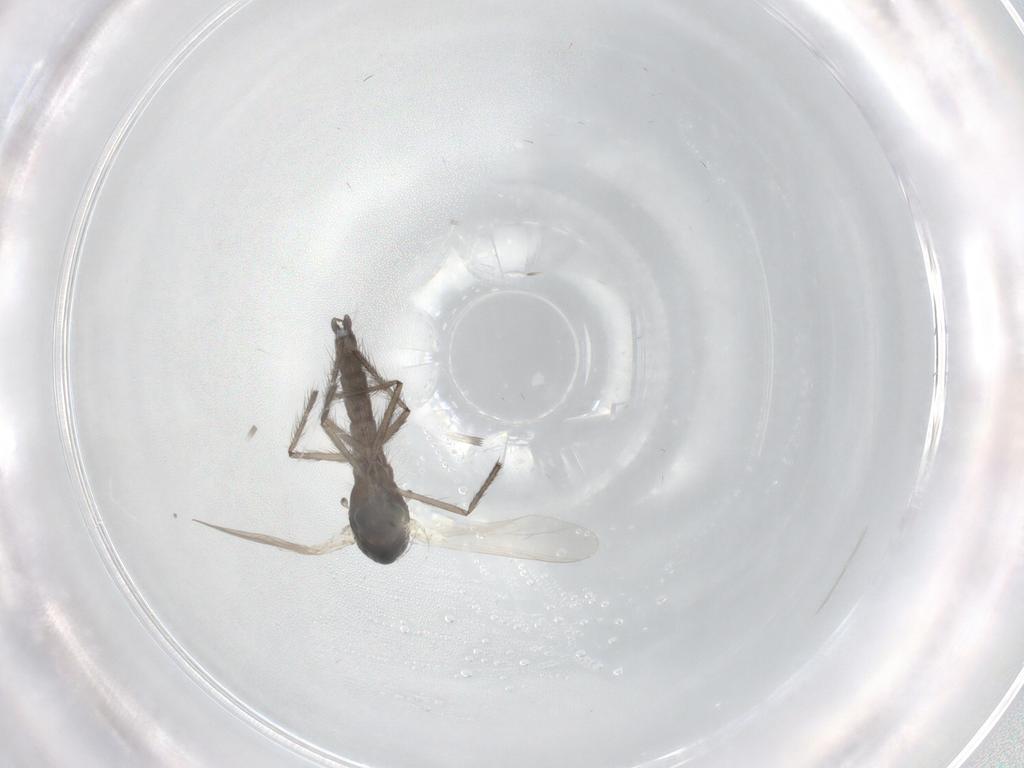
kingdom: Animalia
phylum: Arthropoda
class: Insecta
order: Diptera
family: Chironomidae
